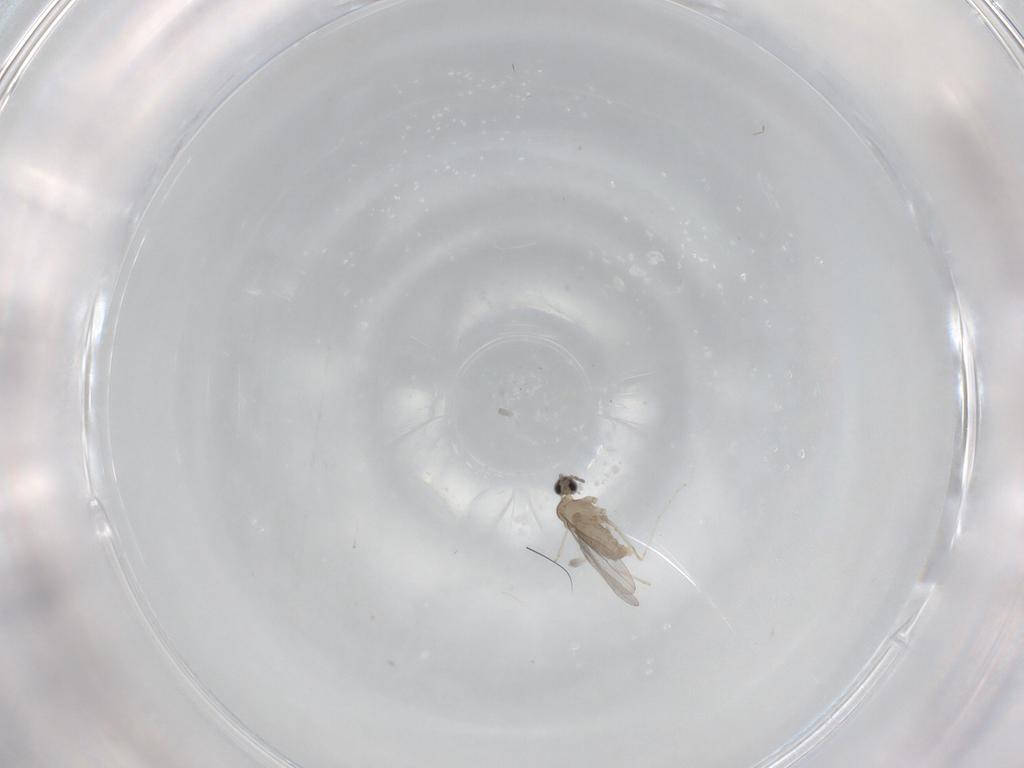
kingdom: Animalia
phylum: Arthropoda
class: Insecta
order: Diptera
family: Cecidomyiidae
